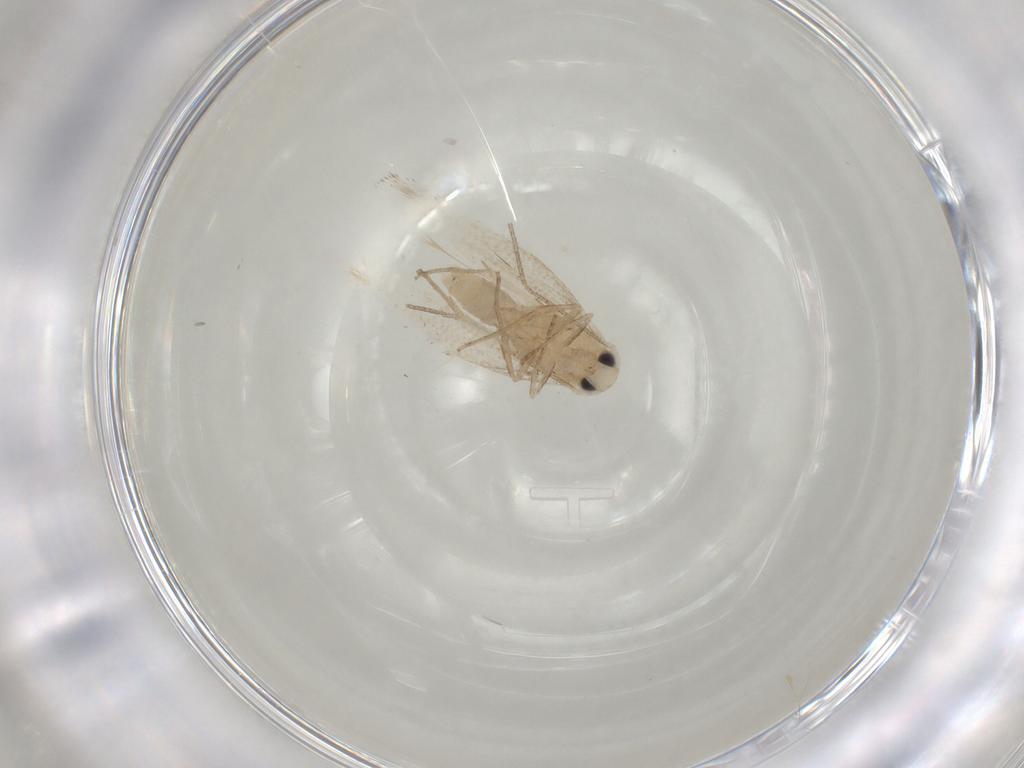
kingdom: Animalia
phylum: Arthropoda
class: Insecta
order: Lepidoptera
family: Lyonetiidae
